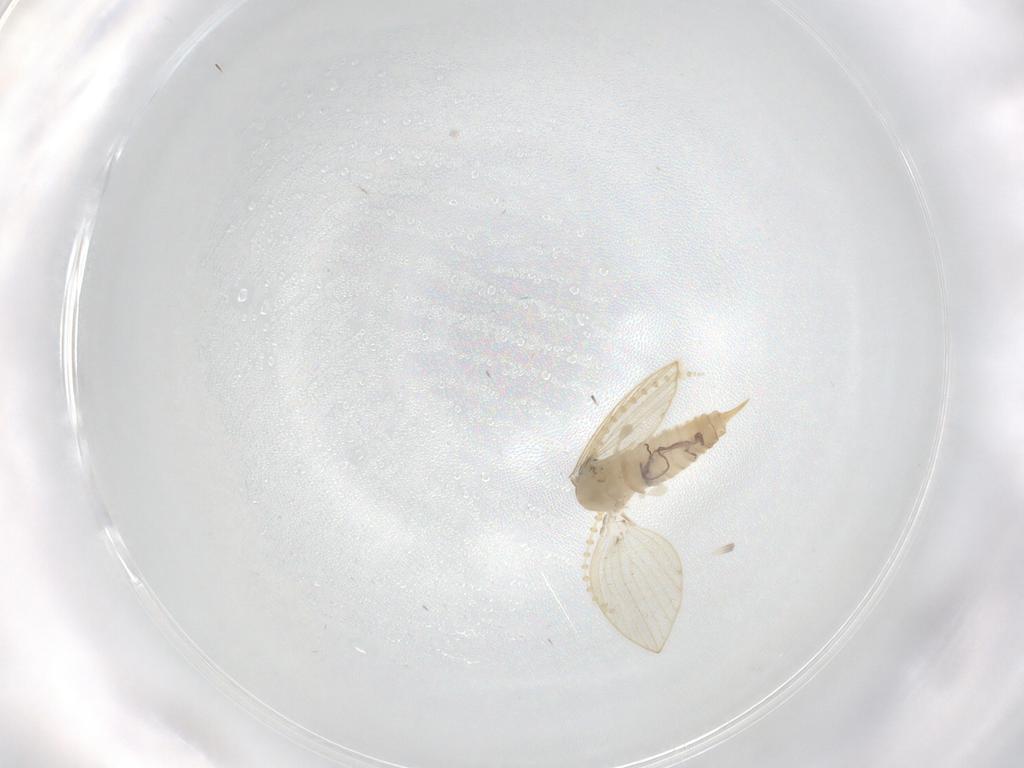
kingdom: Animalia
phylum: Arthropoda
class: Insecta
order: Diptera
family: Psychodidae
